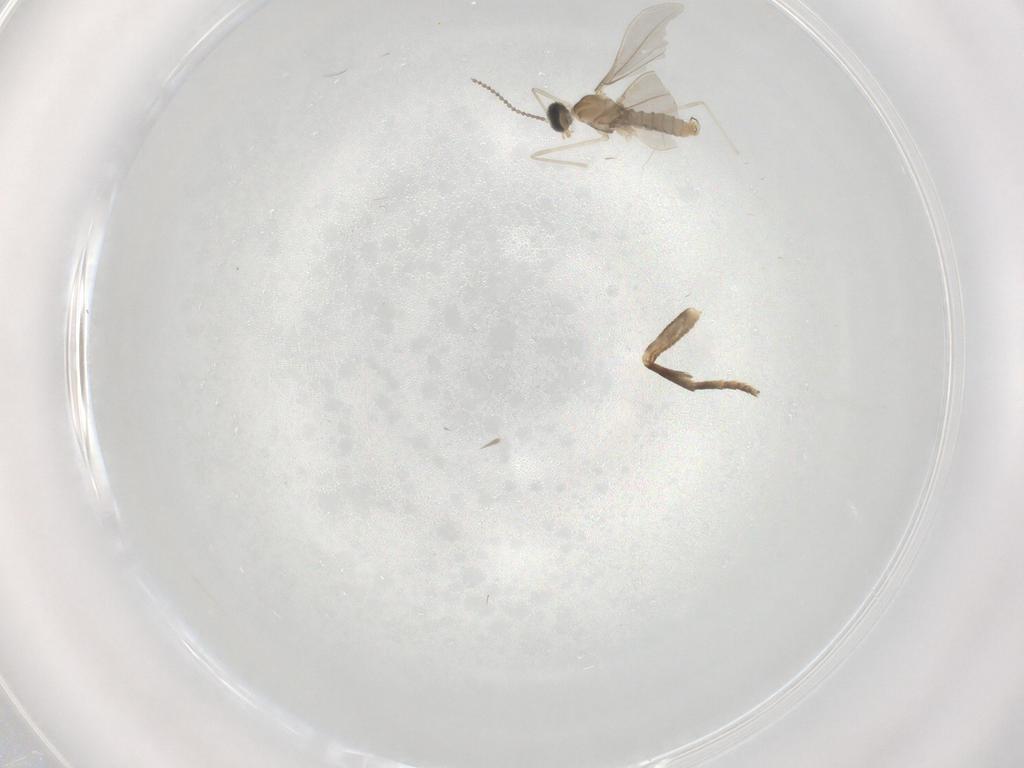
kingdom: Animalia
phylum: Arthropoda
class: Insecta
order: Diptera
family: Cecidomyiidae
